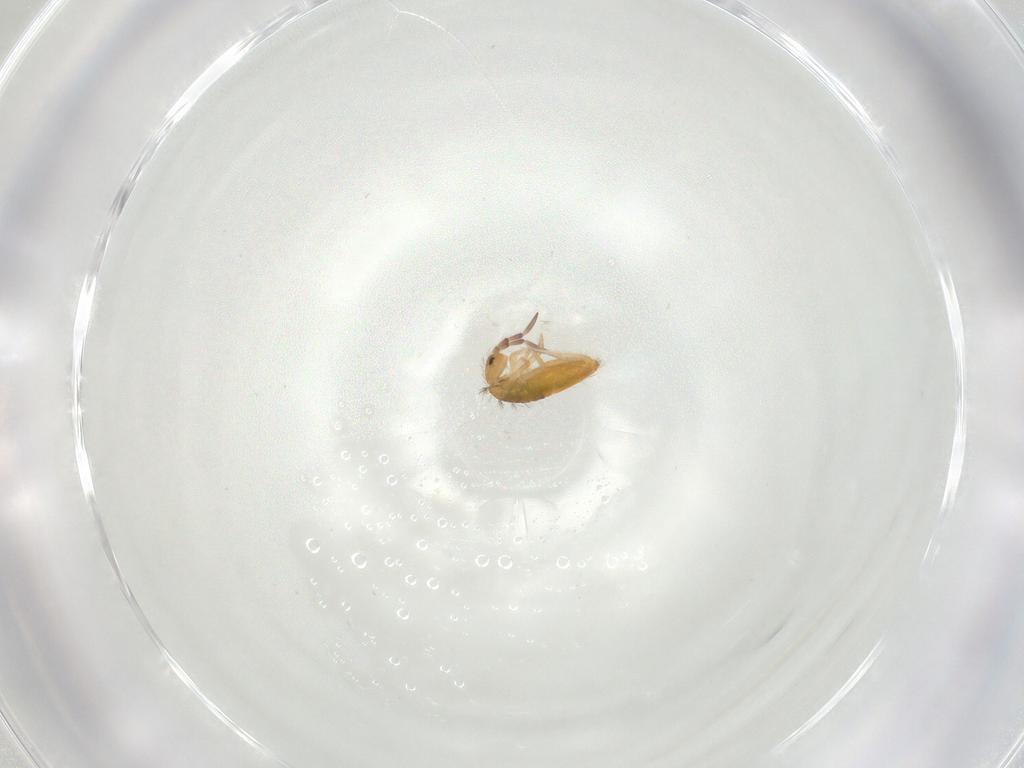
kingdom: Animalia
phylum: Arthropoda
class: Collembola
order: Entomobryomorpha
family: Entomobryidae
